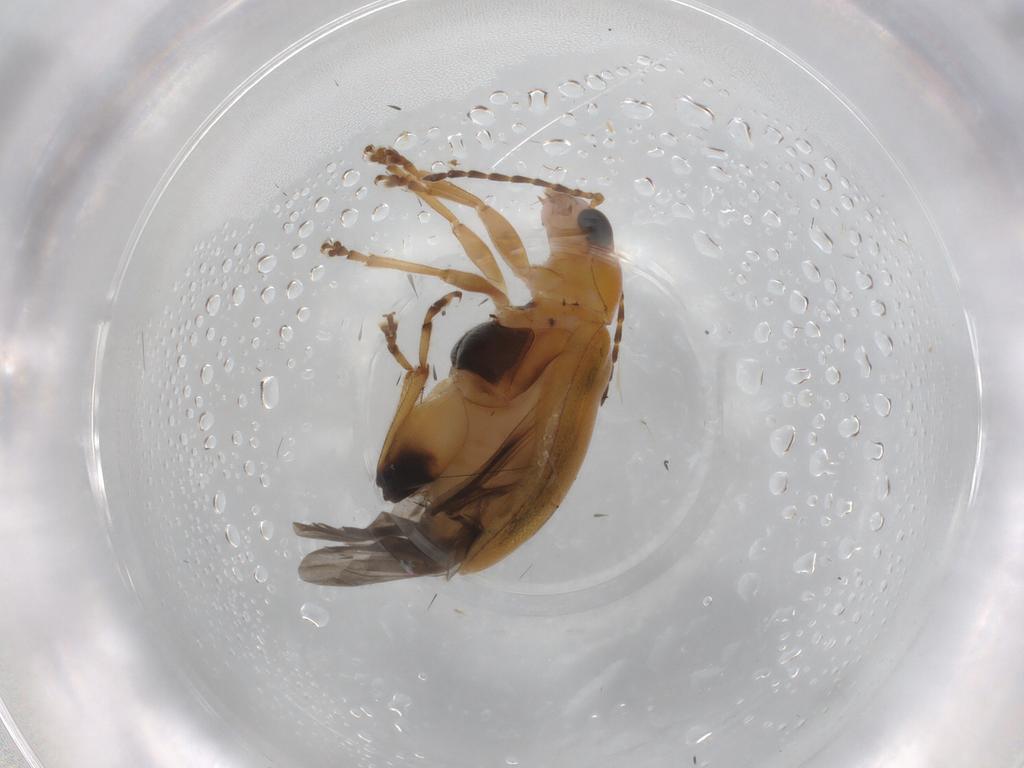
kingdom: Animalia
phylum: Arthropoda
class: Insecta
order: Coleoptera
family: Chrysomelidae
